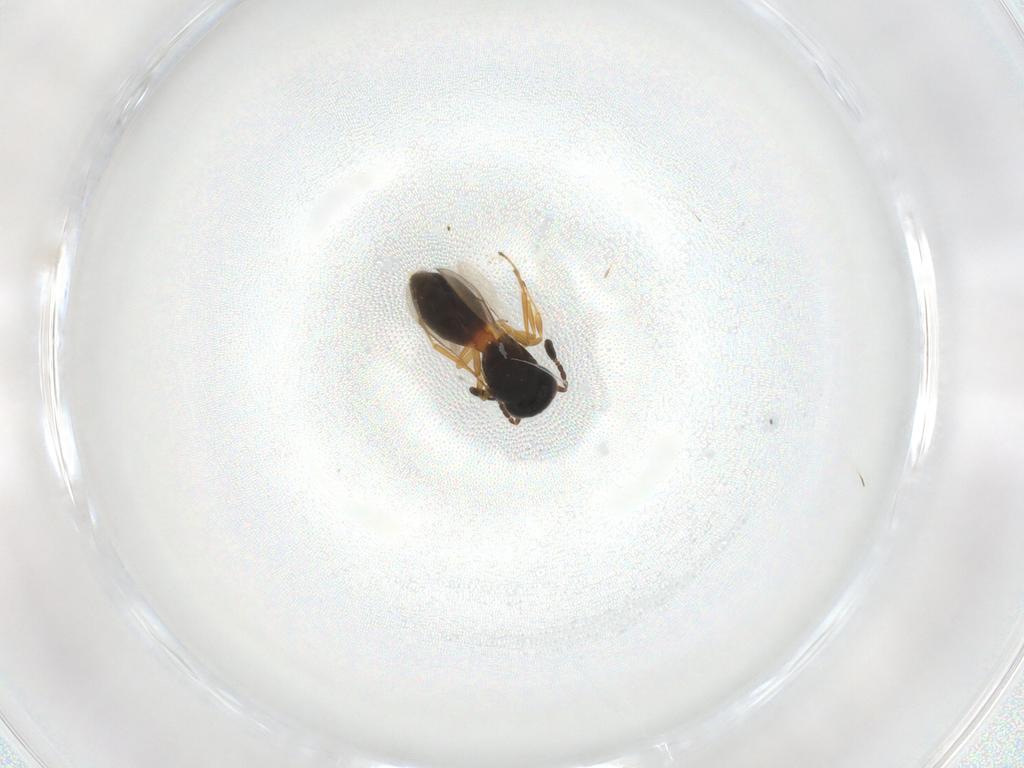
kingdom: Animalia
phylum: Arthropoda
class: Insecta
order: Hymenoptera
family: Scelionidae
